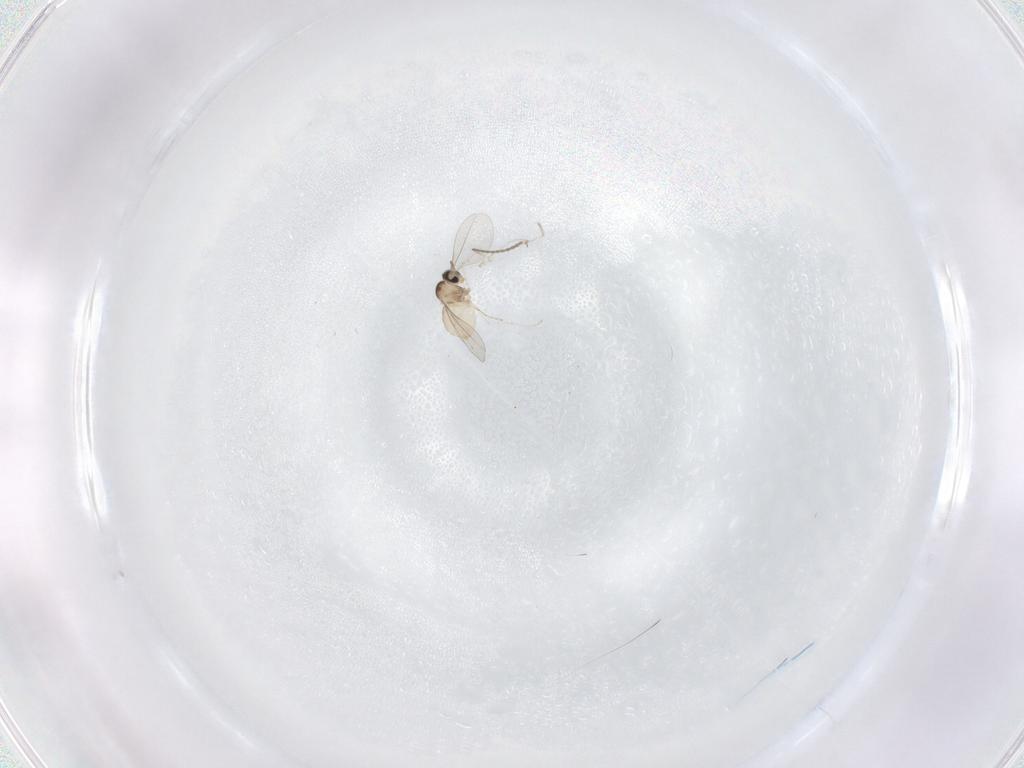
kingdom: Animalia
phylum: Arthropoda
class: Insecta
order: Diptera
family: Cecidomyiidae
